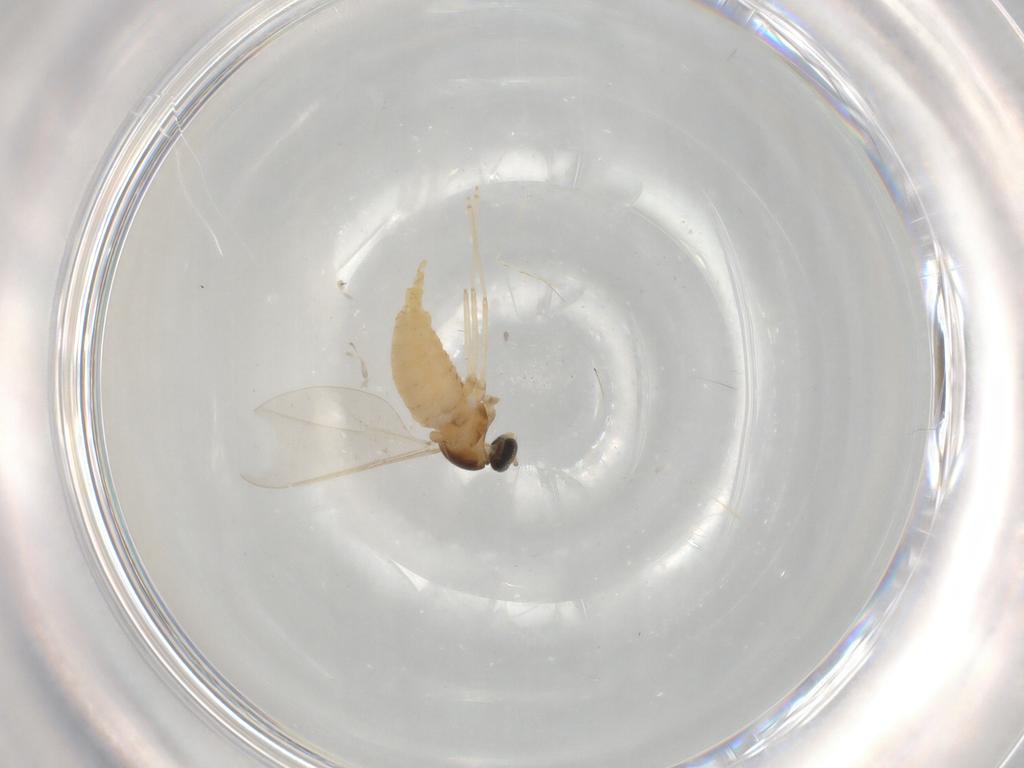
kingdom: Animalia
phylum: Arthropoda
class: Insecta
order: Diptera
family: Cecidomyiidae
